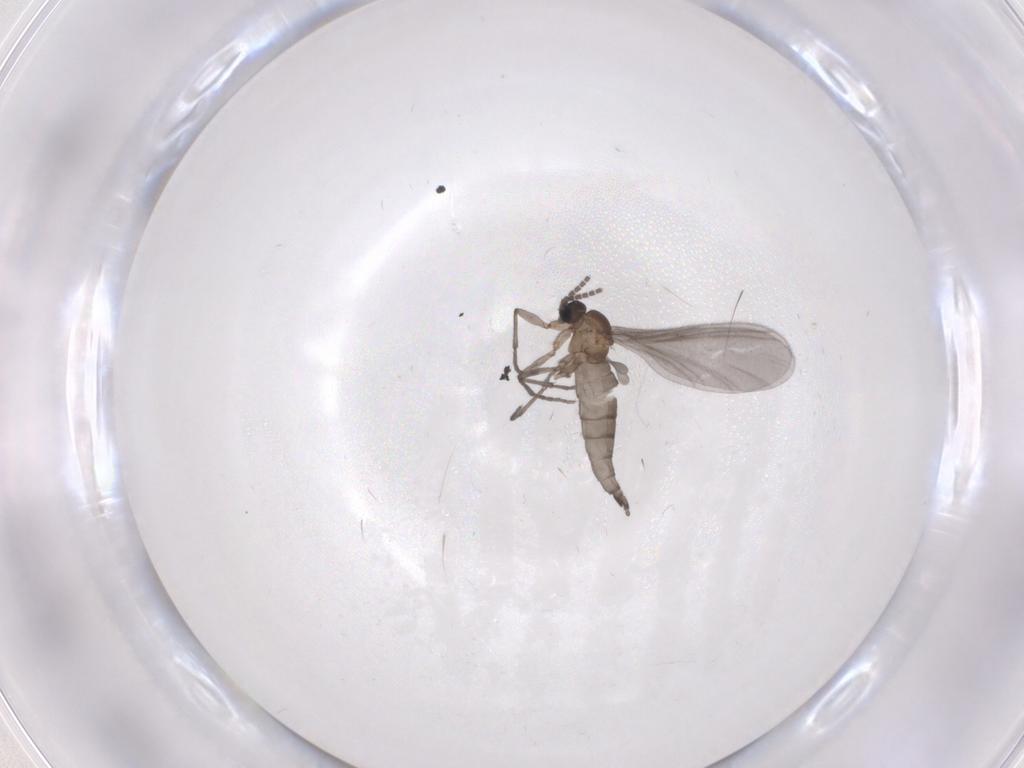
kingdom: Animalia
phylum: Arthropoda
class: Insecta
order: Diptera
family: Sciaridae
